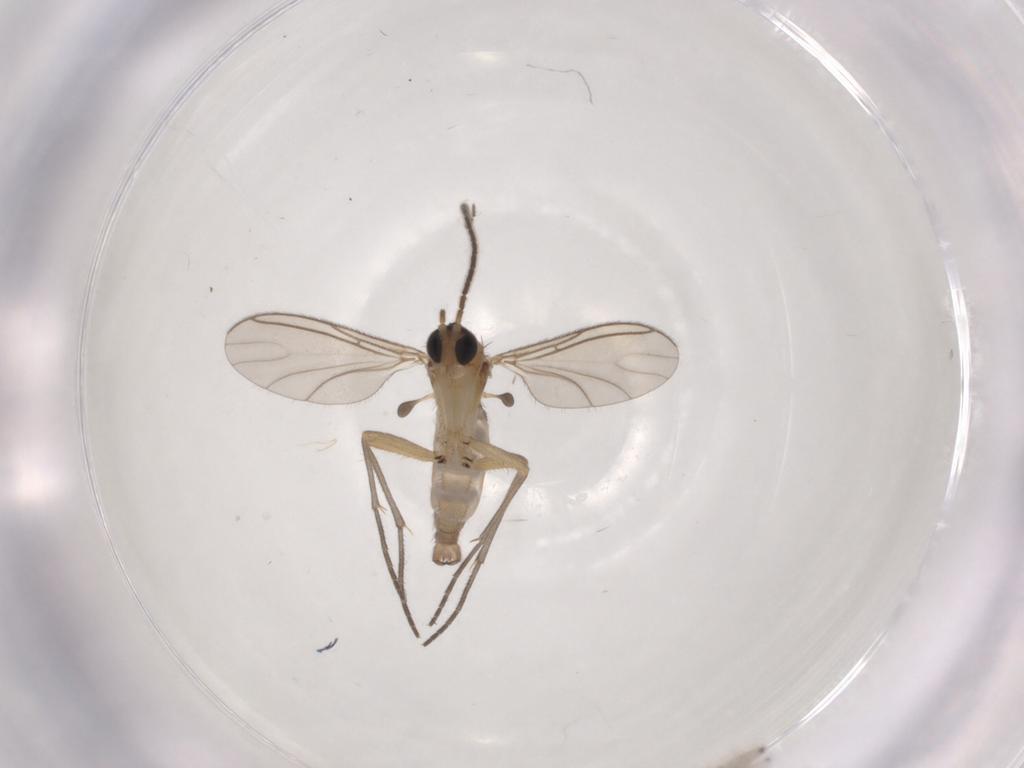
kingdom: Animalia
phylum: Arthropoda
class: Insecta
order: Diptera
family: Sciaridae
